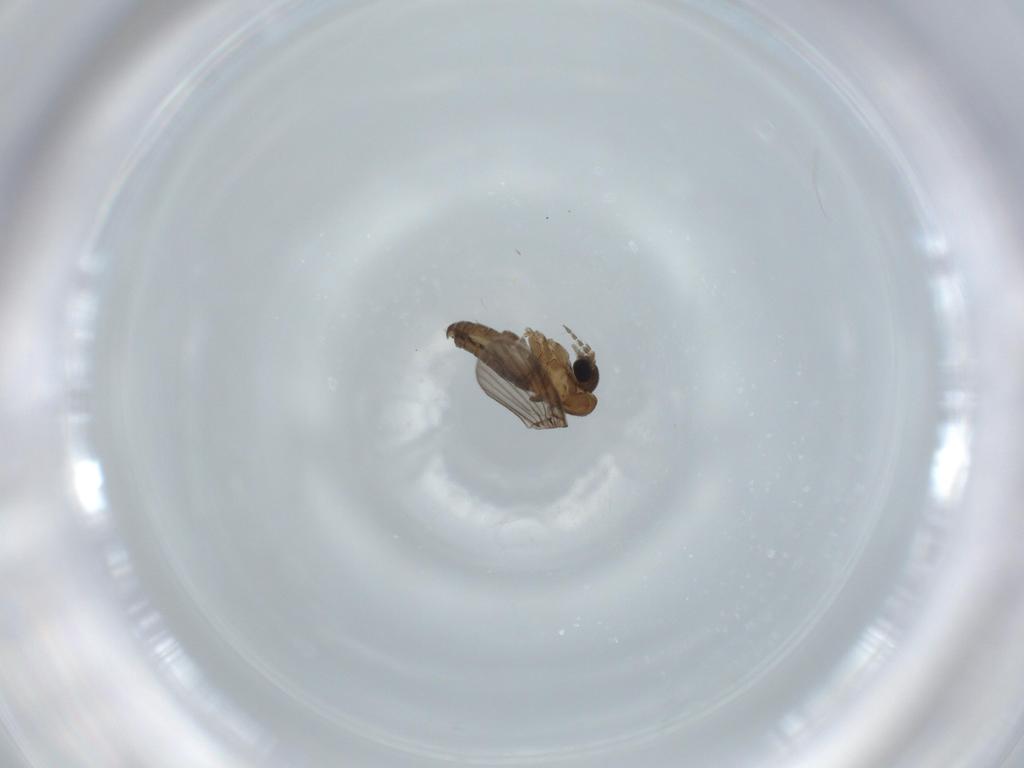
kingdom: Animalia
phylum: Arthropoda
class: Insecta
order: Diptera
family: Psychodidae
